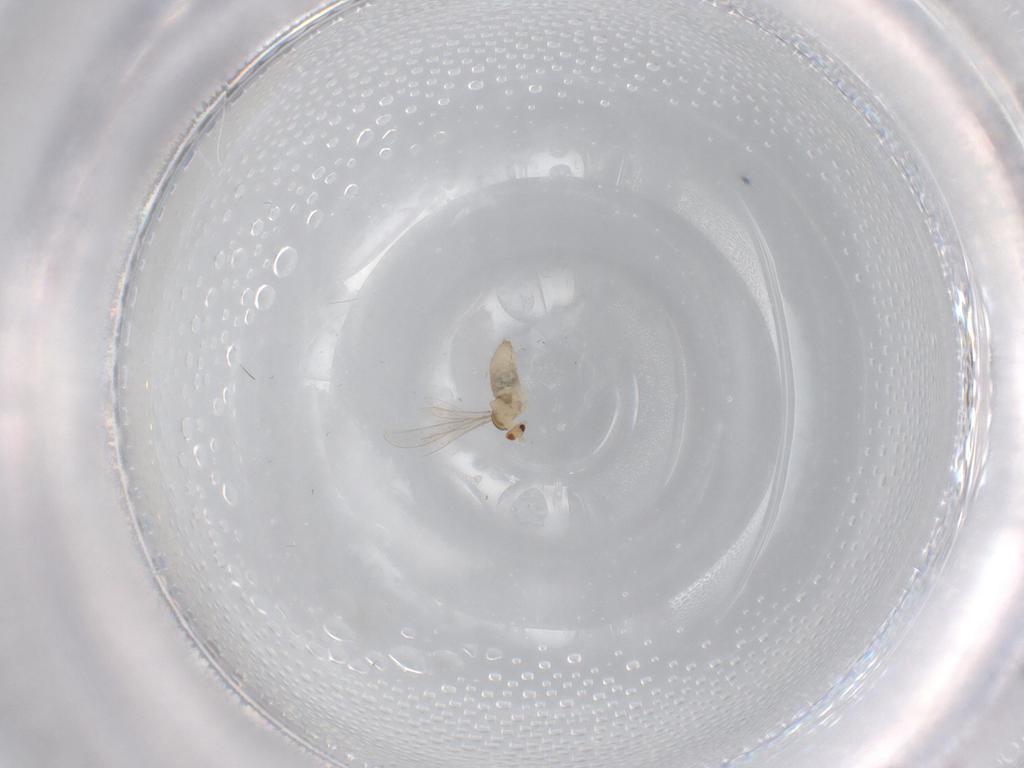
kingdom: Animalia
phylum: Arthropoda
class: Insecta
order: Diptera
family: Cecidomyiidae
